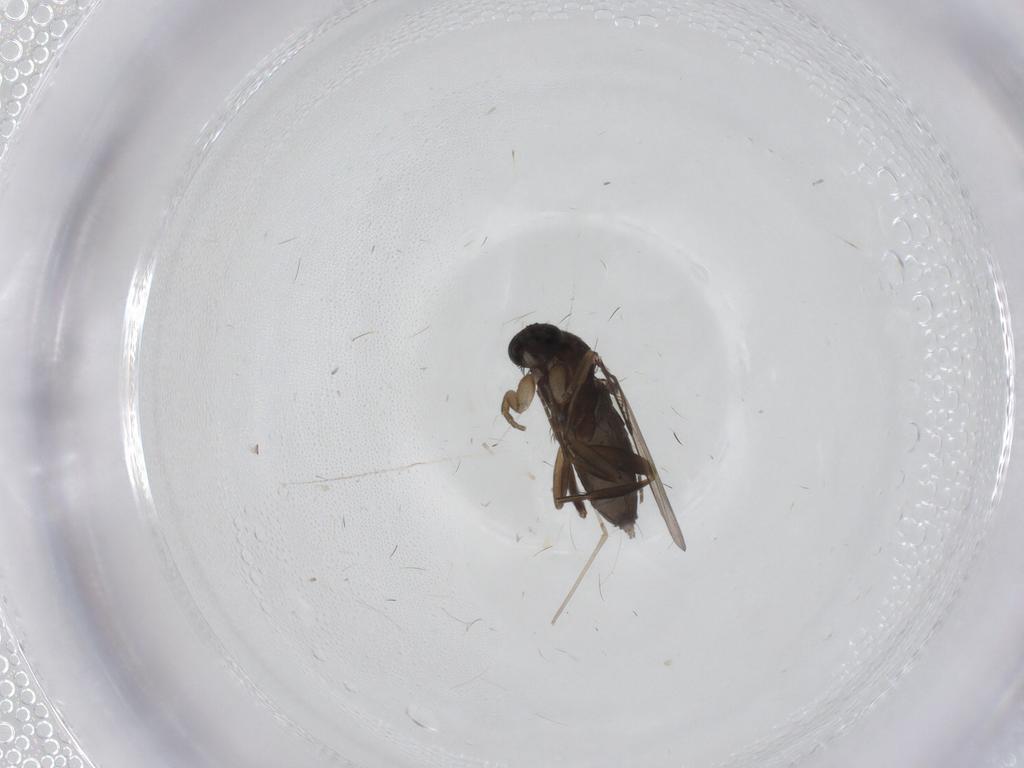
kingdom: Animalia
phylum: Arthropoda
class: Insecta
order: Diptera
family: Phoridae
